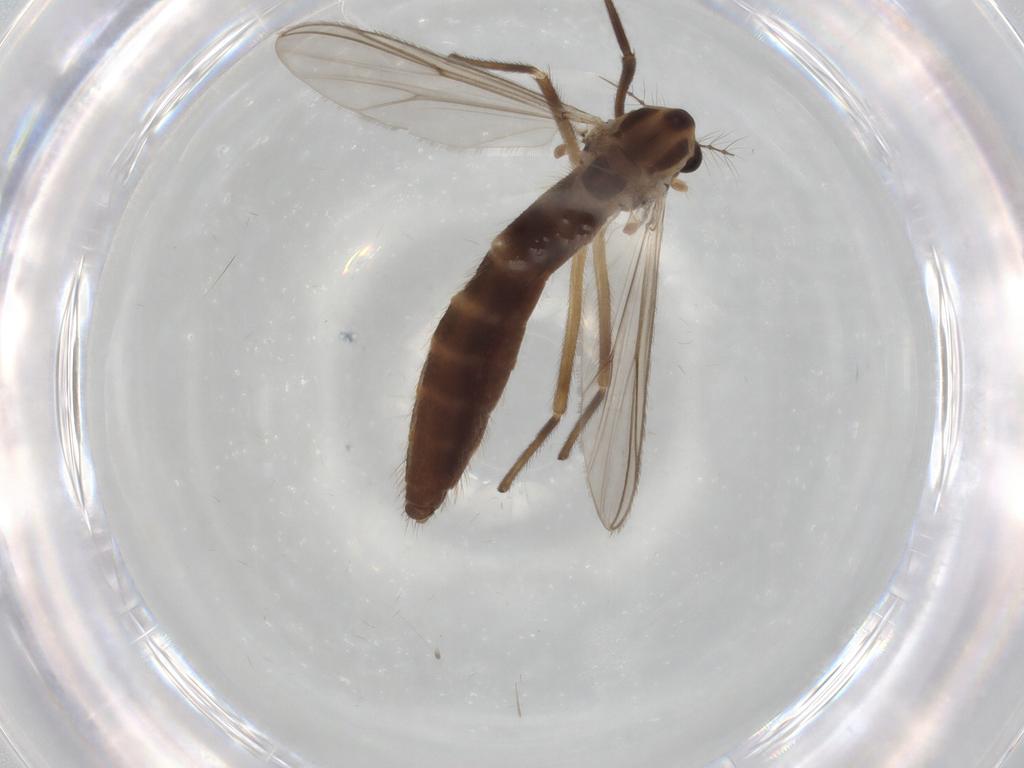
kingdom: Animalia
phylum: Arthropoda
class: Insecta
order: Diptera
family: Chironomidae
